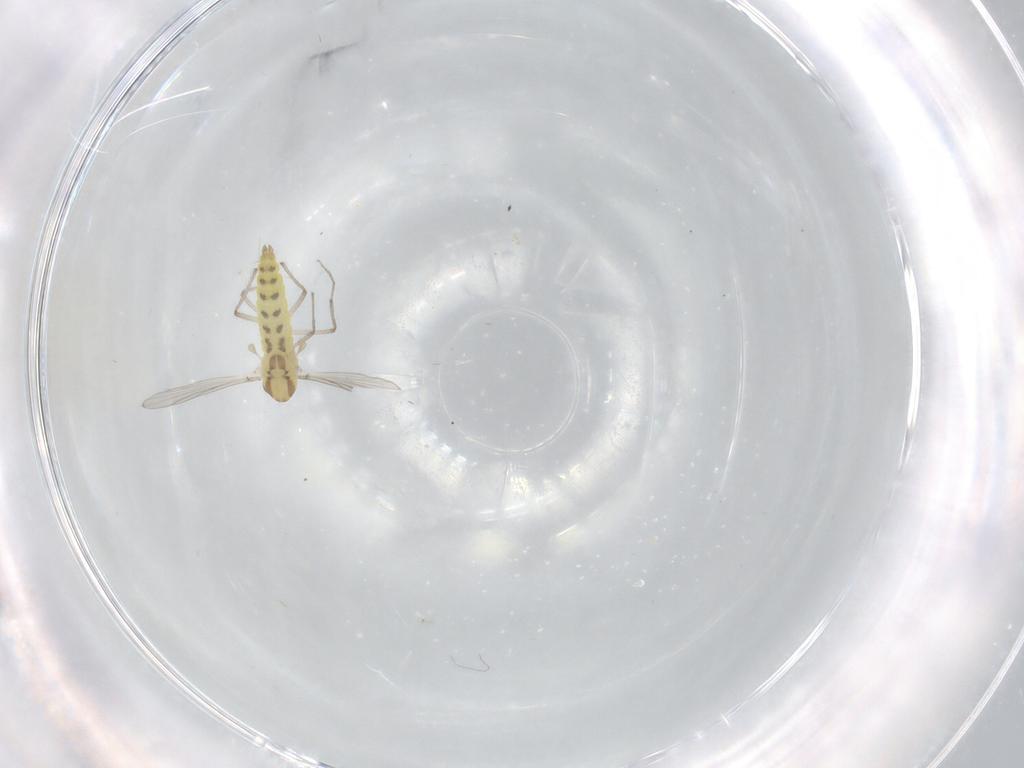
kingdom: Animalia
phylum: Arthropoda
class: Insecta
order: Diptera
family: Chironomidae
